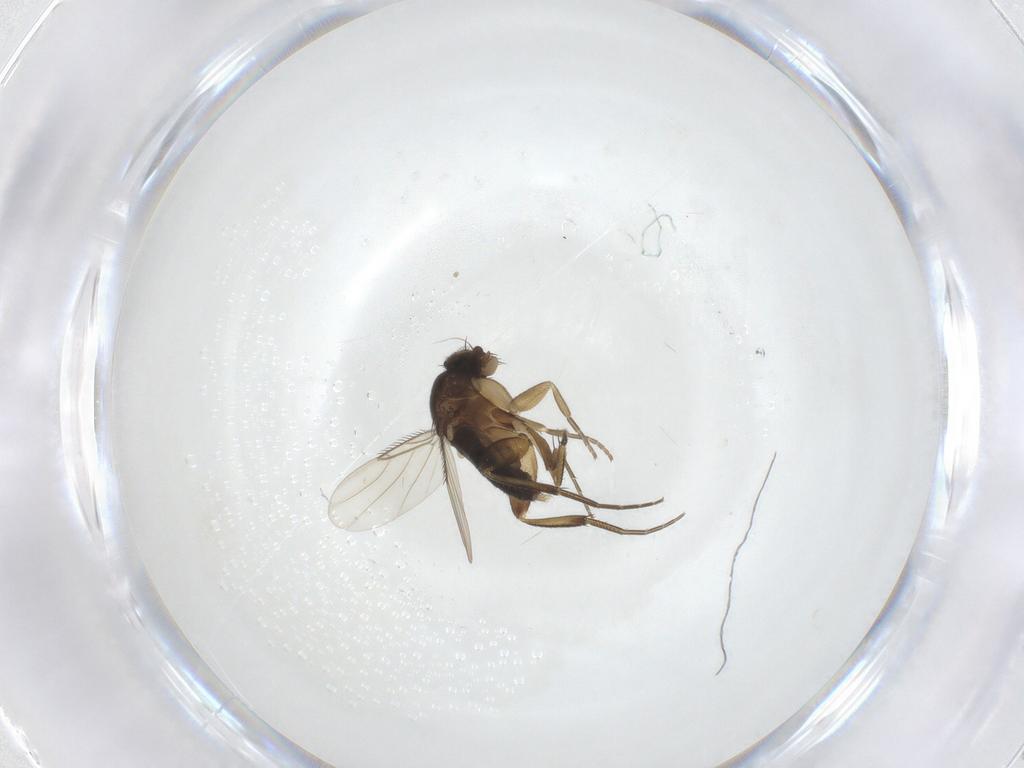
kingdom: Animalia
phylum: Arthropoda
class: Insecta
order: Diptera
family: Phoridae
